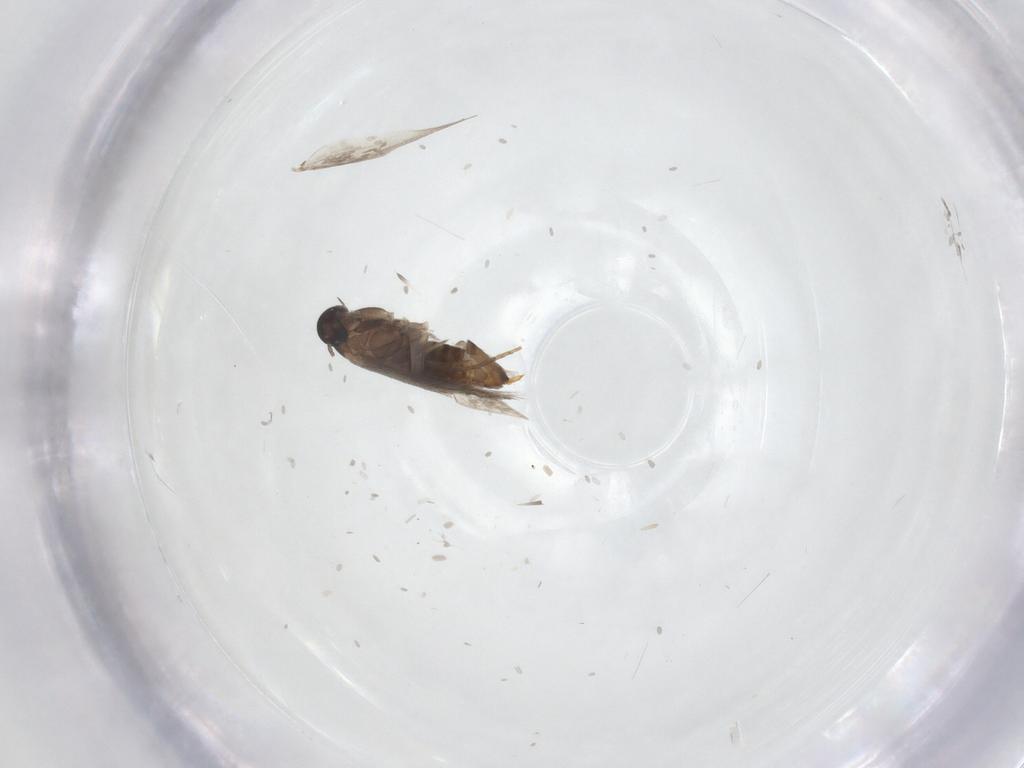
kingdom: Animalia
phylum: Arthropoda
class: Insecta
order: Lepidoptera
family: Heliozelidae
